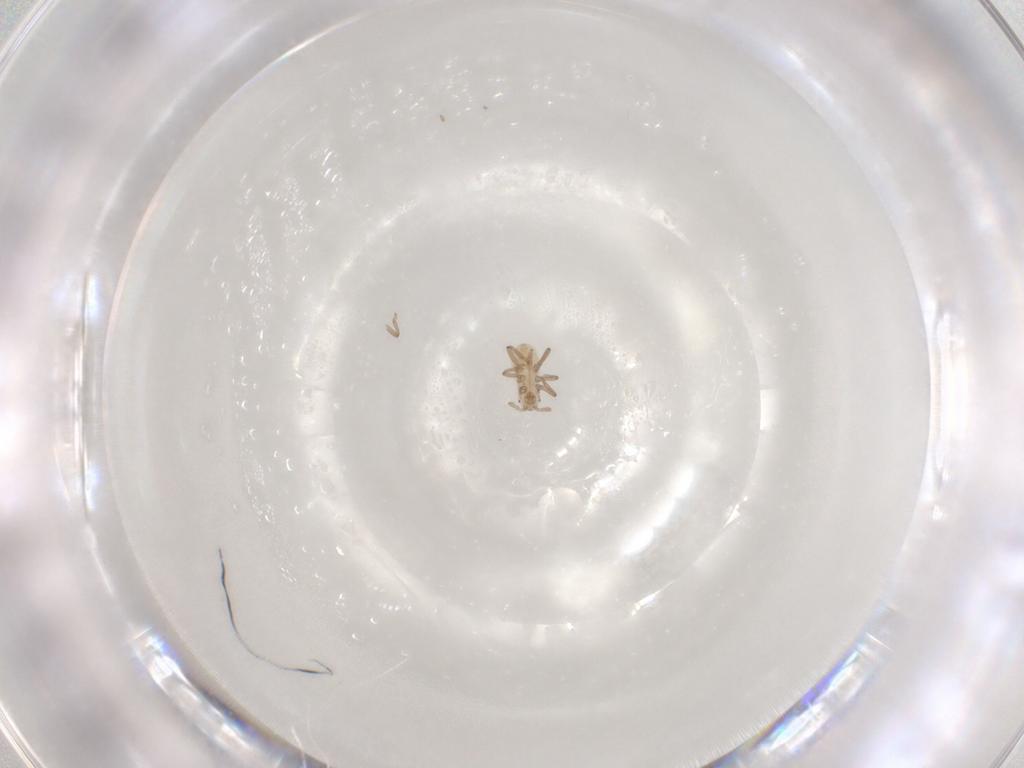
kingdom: Animalia
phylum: Arthropoda
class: Insecta
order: Hemiptera
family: Aphididae
